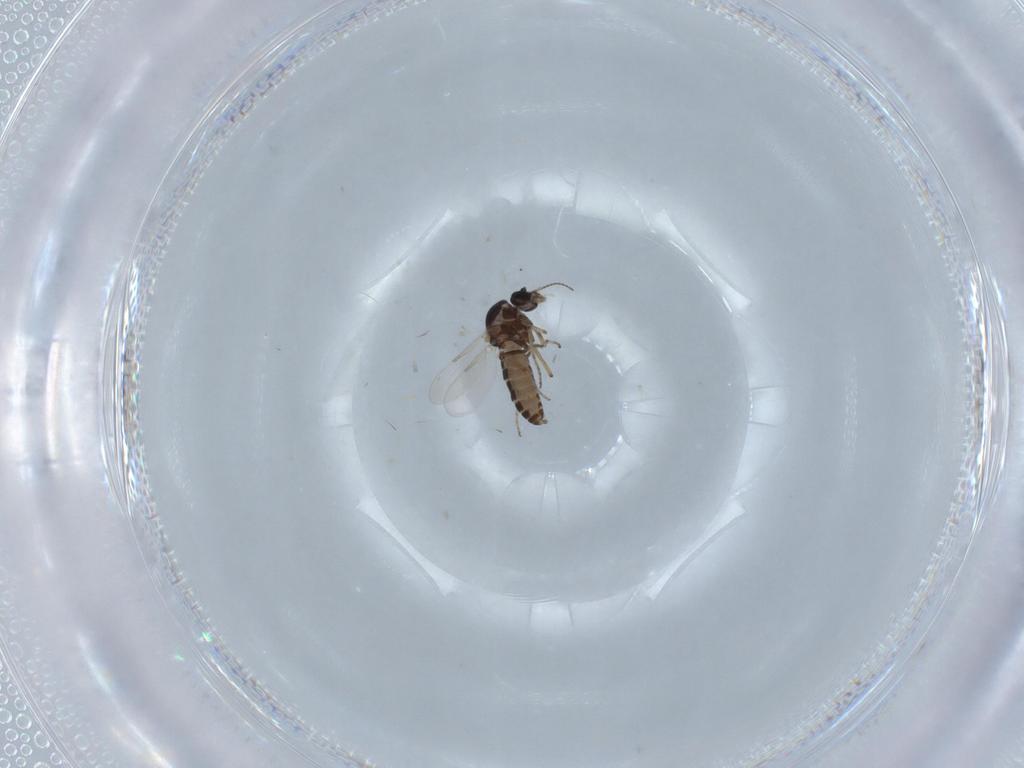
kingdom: Animalia
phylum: Arthropoda
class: Insecta
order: Diptera
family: Ceratopogonidae
